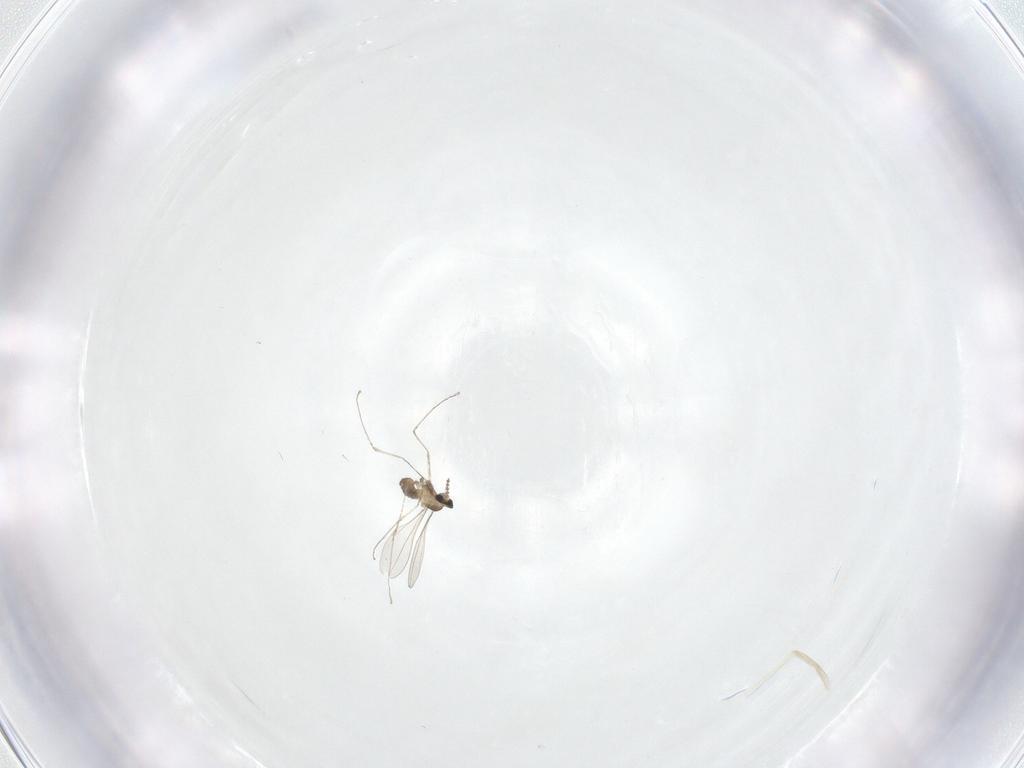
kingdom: Animalia
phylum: Arthropoda
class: Insecta
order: Diptera
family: Cecidomyiidae
